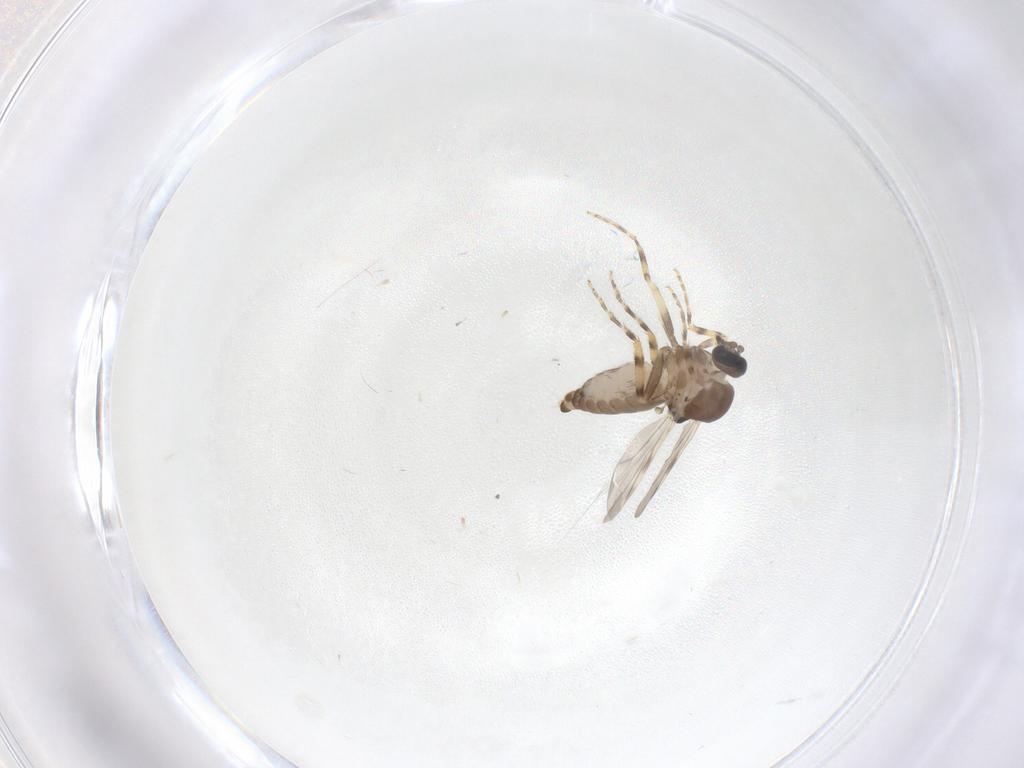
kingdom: Animalia
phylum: Arthropoda
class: Insecta
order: Diptera
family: Ceratopogonidae
